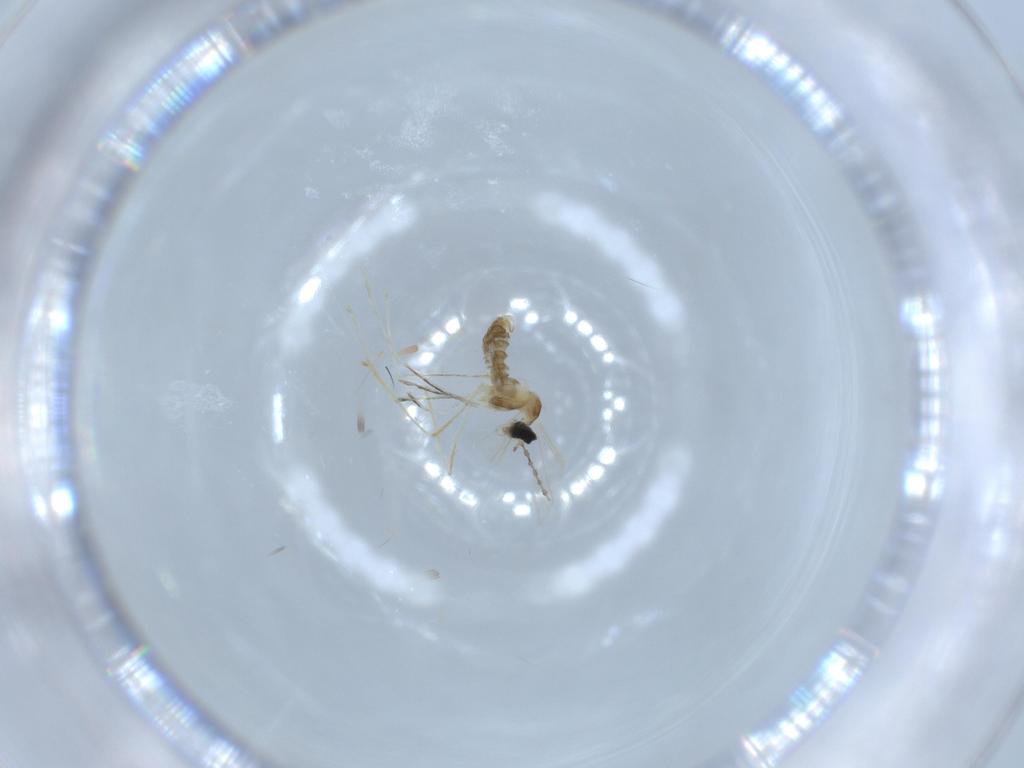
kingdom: Animalia
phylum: Arthropoda
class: Insecta
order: Diptera
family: Cecidomyiidae
